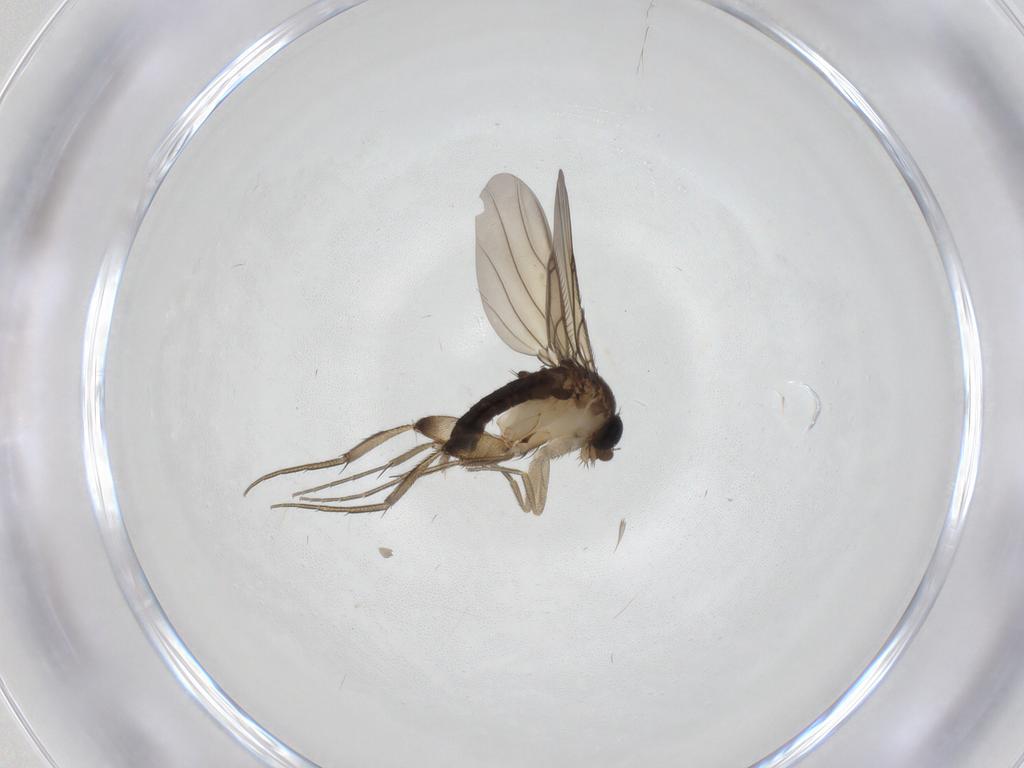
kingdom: Animalia
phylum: Arthropoda
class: Insecta
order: Diptera
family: Phoridae
